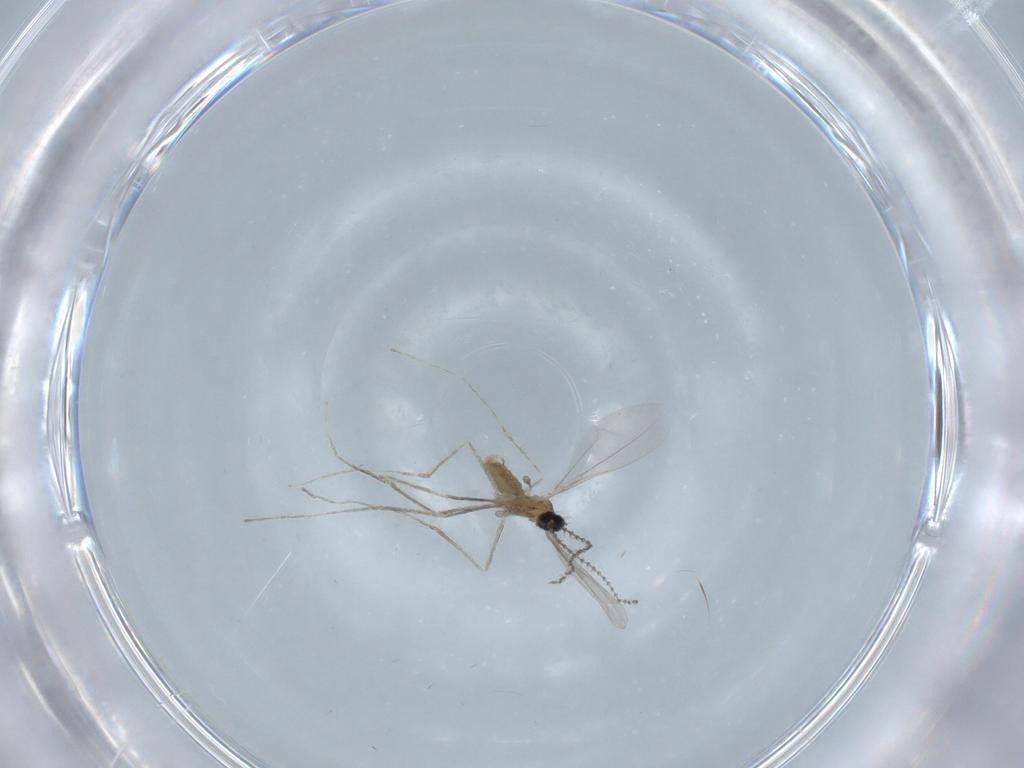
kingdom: Animalia
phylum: Arthropoda
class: Insecta
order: Diptera
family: Cecidomyiidae
